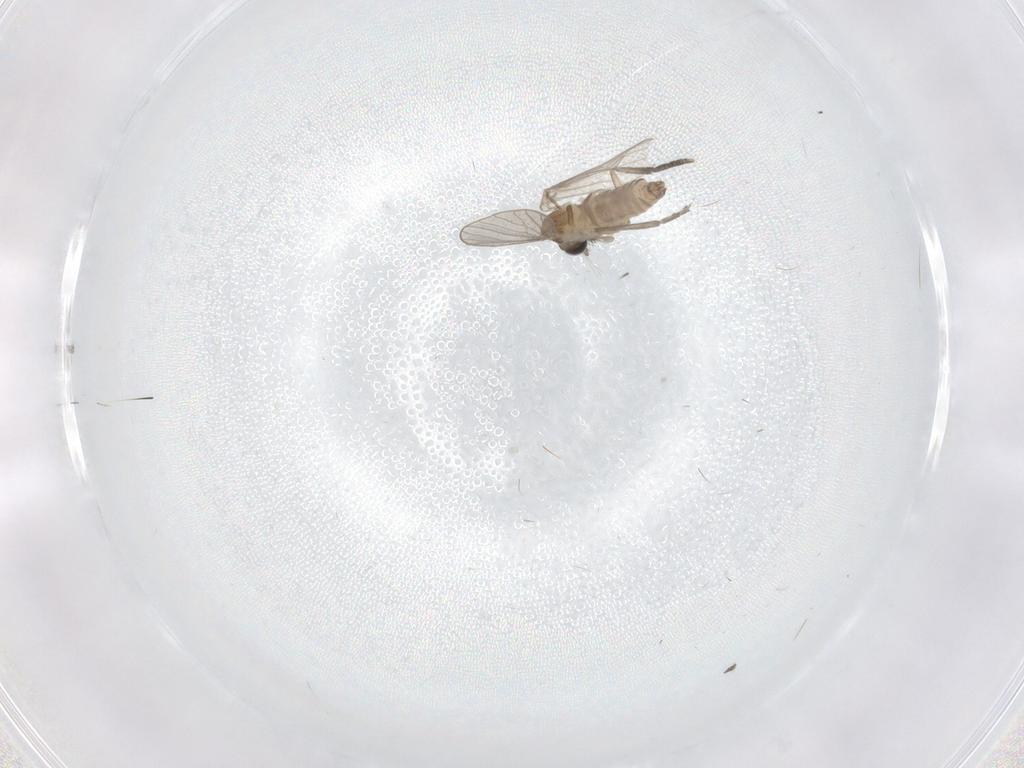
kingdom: Animalia
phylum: Arthropoda
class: Insecta
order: Diptera
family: Psychodidae
